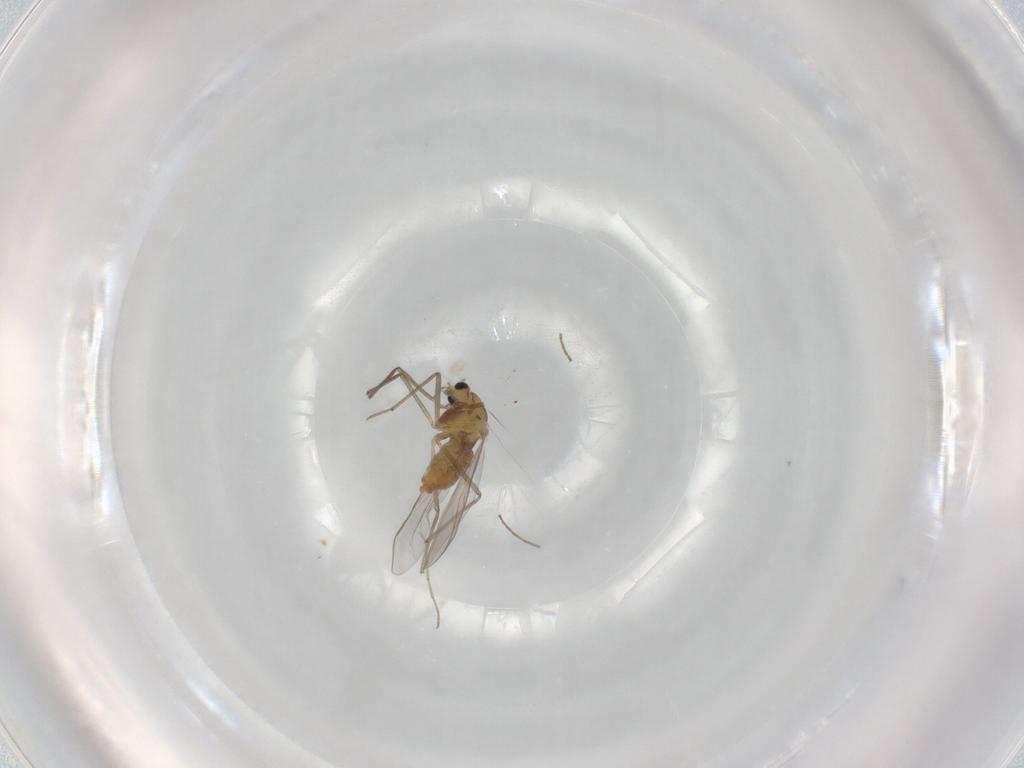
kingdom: Animalia
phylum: Arthropoda
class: Insecta
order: Diptera
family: Chironomidae
